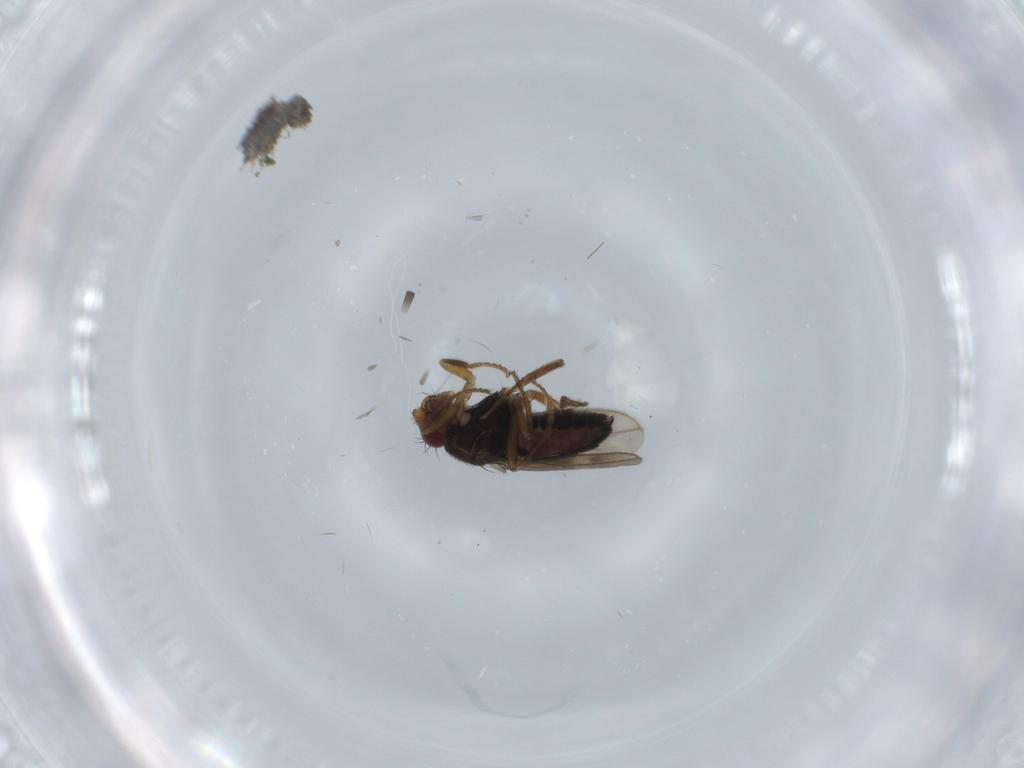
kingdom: Animalia
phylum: Arthropoda
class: Insecta
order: Diptera
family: Sphaeroceridae
